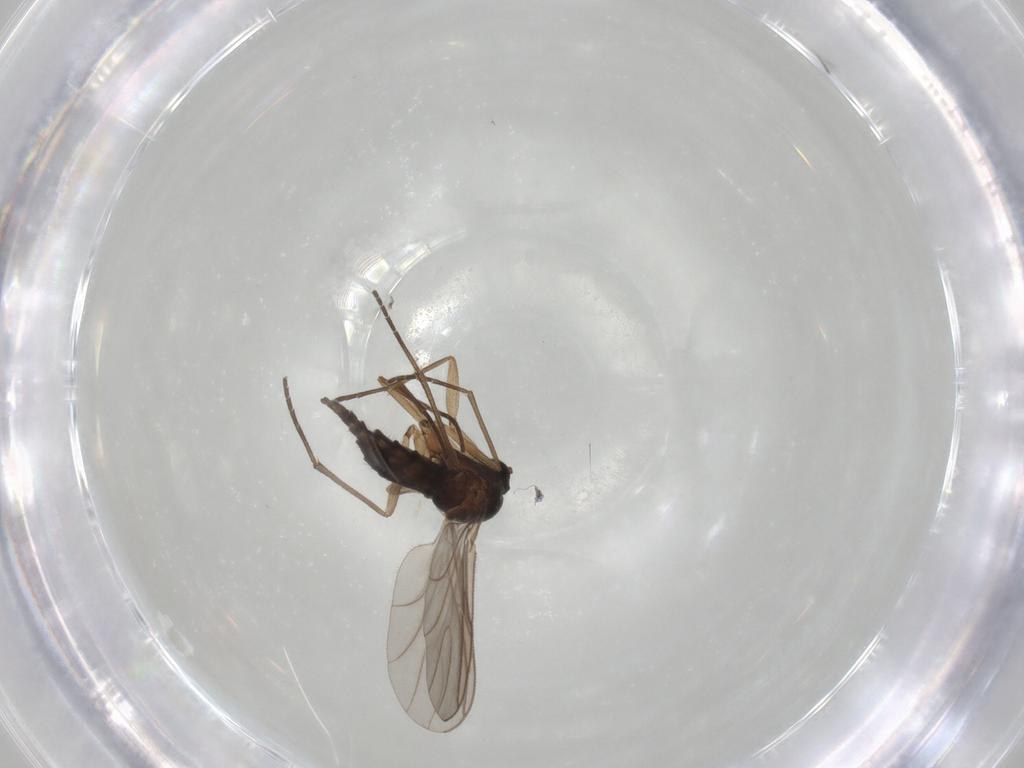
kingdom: Animalia
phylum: Arthropoda
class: Insecta
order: Diptera
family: Sciaridae
